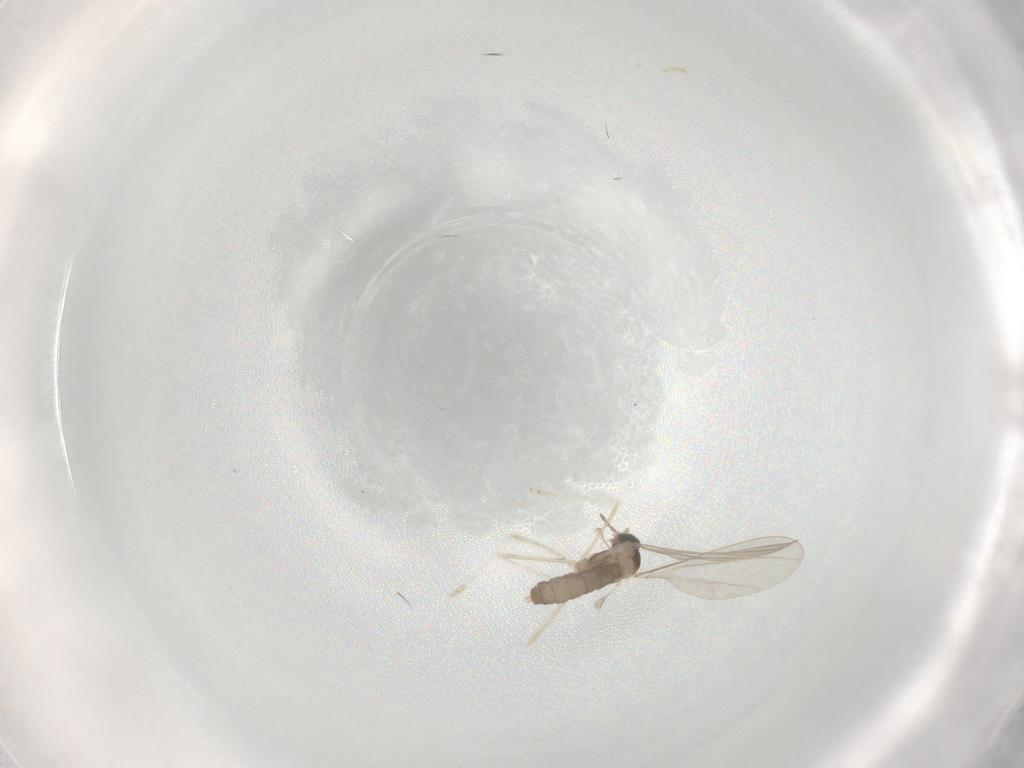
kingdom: Animalia
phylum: Arthropoda
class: Insecta
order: Diptera
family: Cecidomyiidae
